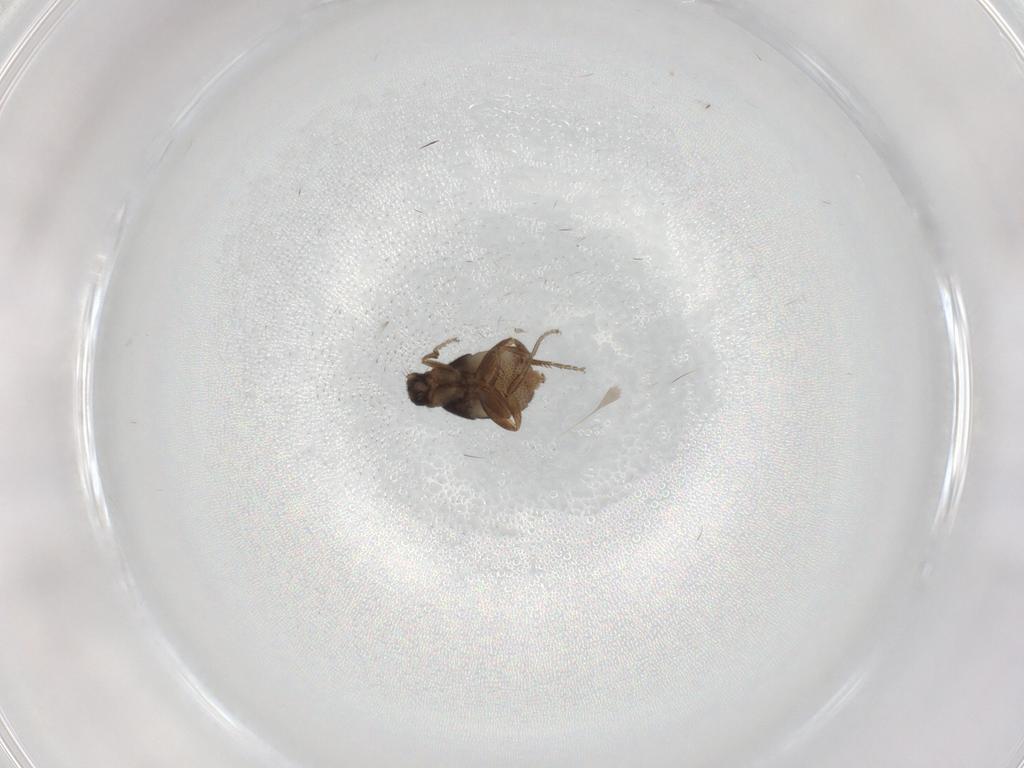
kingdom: Animalia
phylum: Arthropoda
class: Insecta
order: Diptera
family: Phoridae
